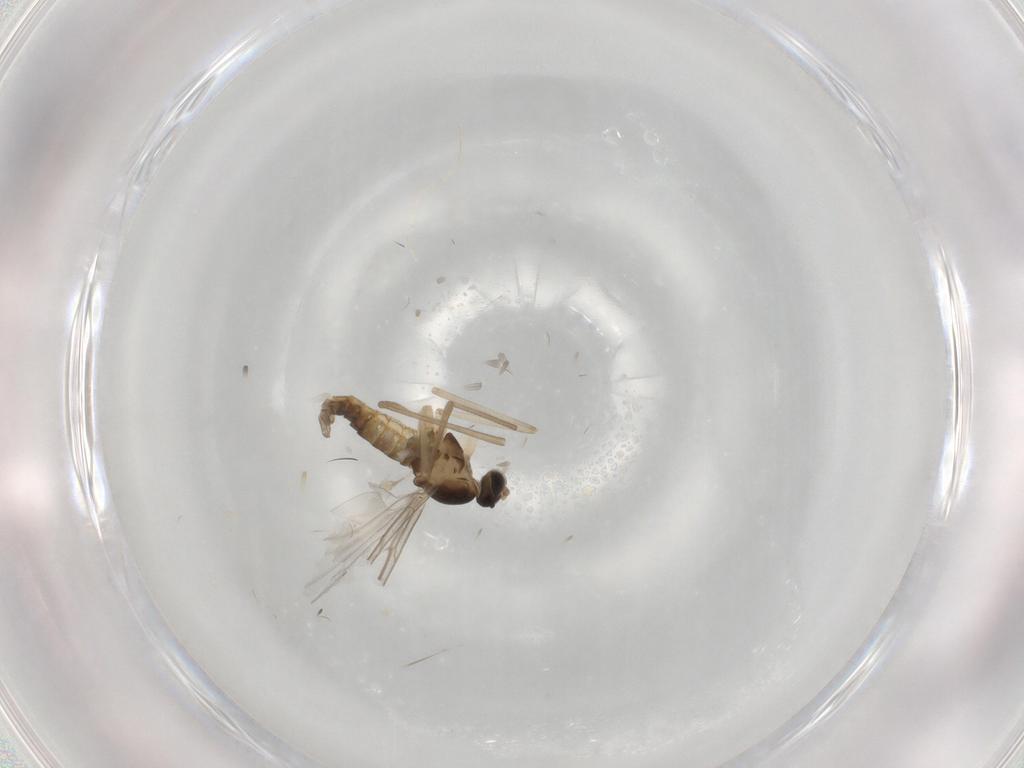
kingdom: Animalia
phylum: Arthropoda
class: Insecta
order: Diptera
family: Cecidomyiidae
